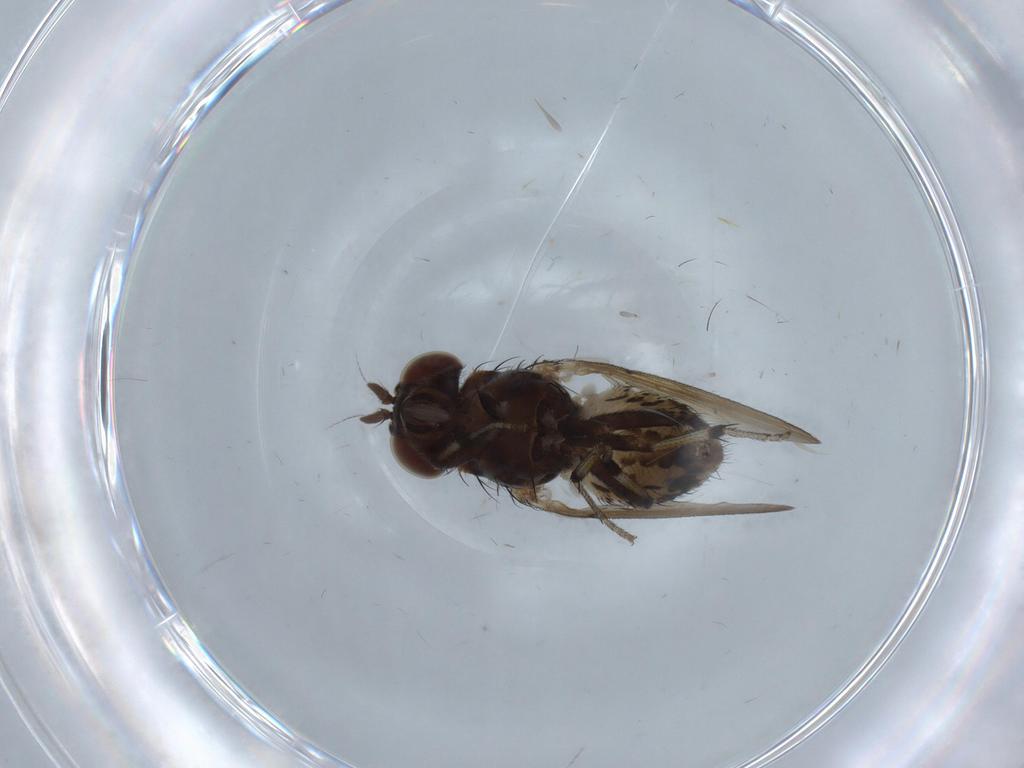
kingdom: Animalia
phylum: Arthropoda
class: Insecta
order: Diptera
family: Cecidomyiidae
